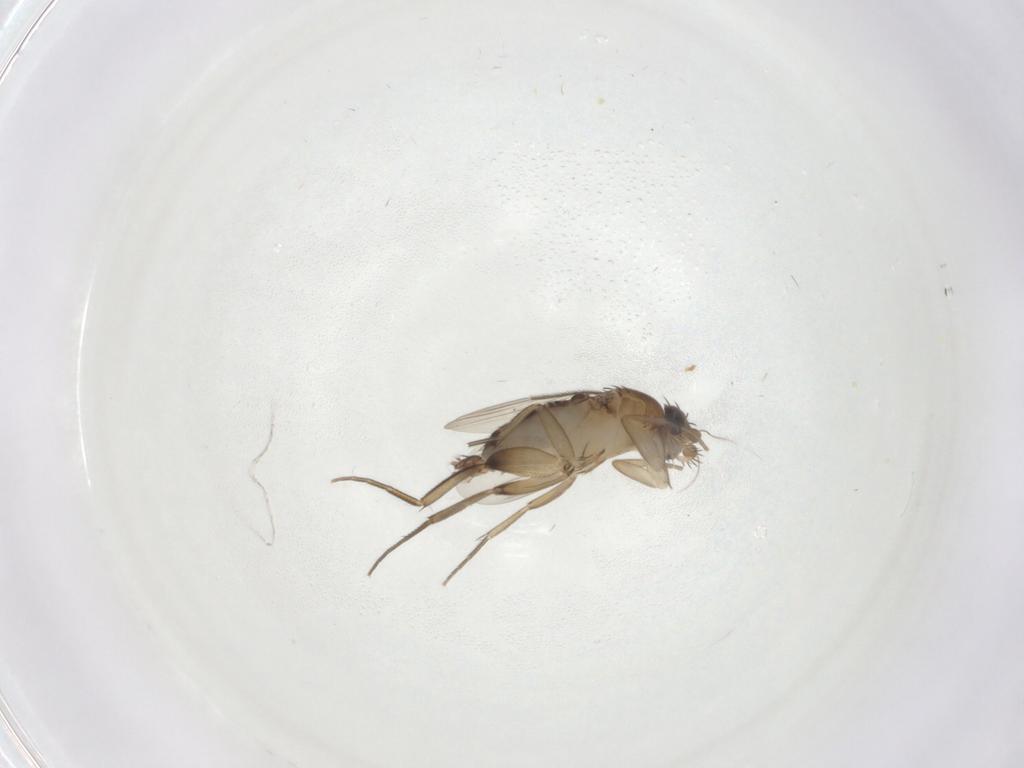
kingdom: Animalia
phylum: Arthropoda
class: Insecta
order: Diptera
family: Phoridae
